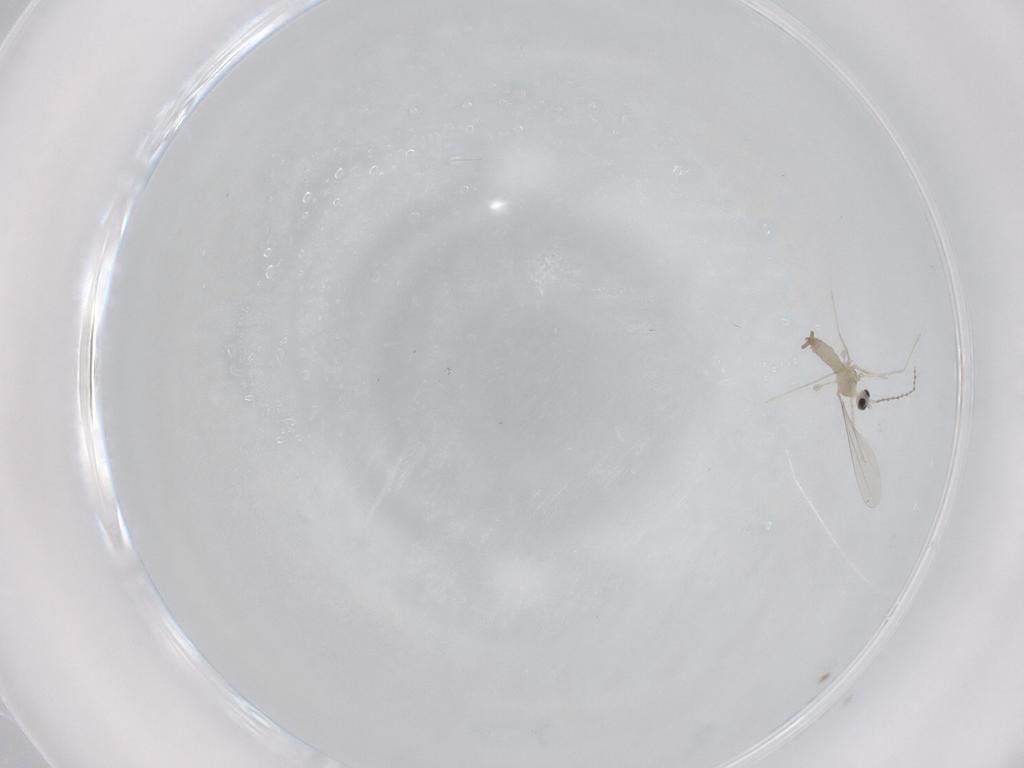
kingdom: Animalia
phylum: Arthropoda
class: Insecta
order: Diptera
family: Cecidomyiidae
